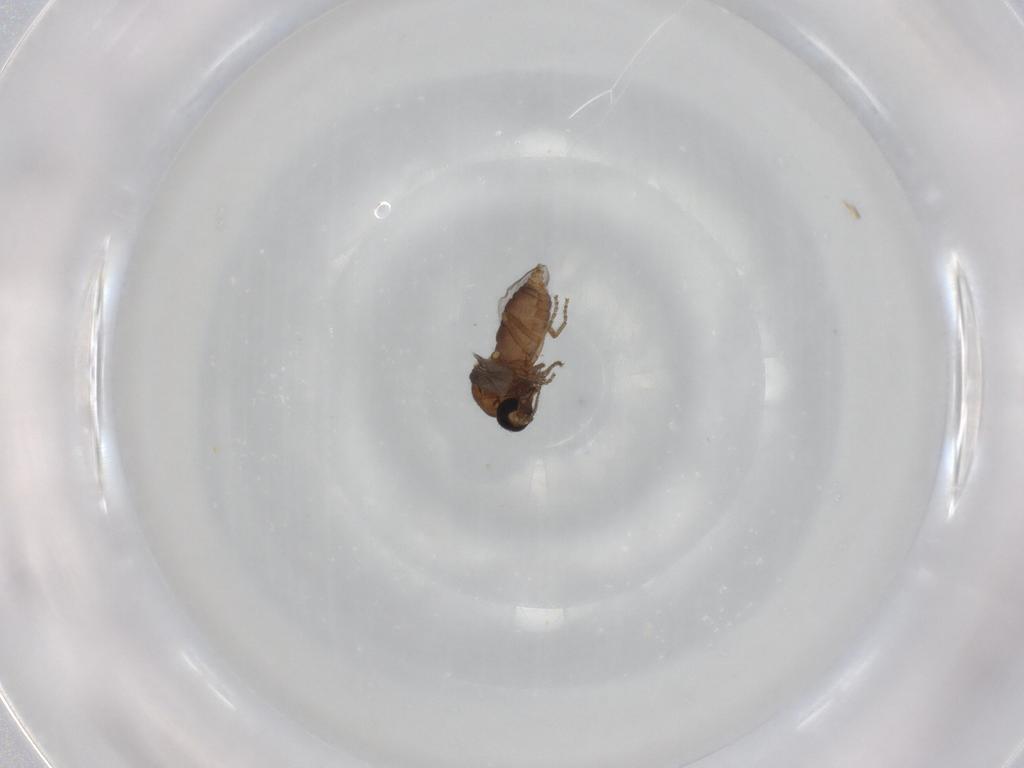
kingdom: Animalia
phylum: Arthropoda
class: Insecta
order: Diptera
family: Ceratopogonidae
